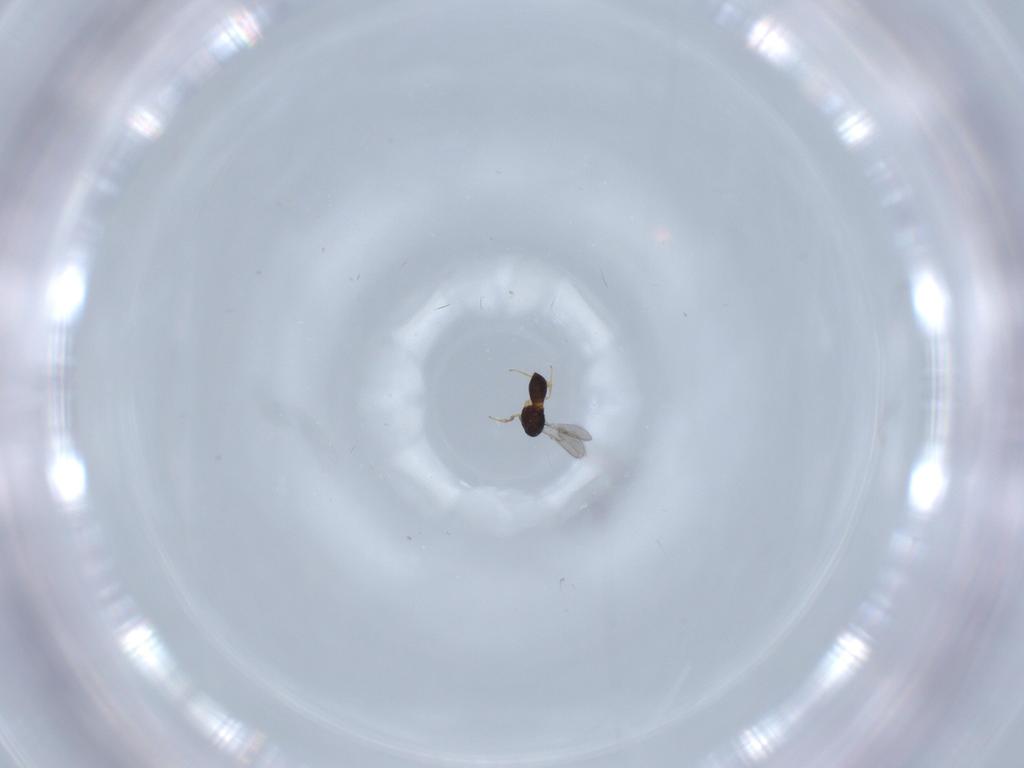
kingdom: Animalia
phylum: Arthropoda
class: Insecta
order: Hymenoptera
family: Scelionidae
